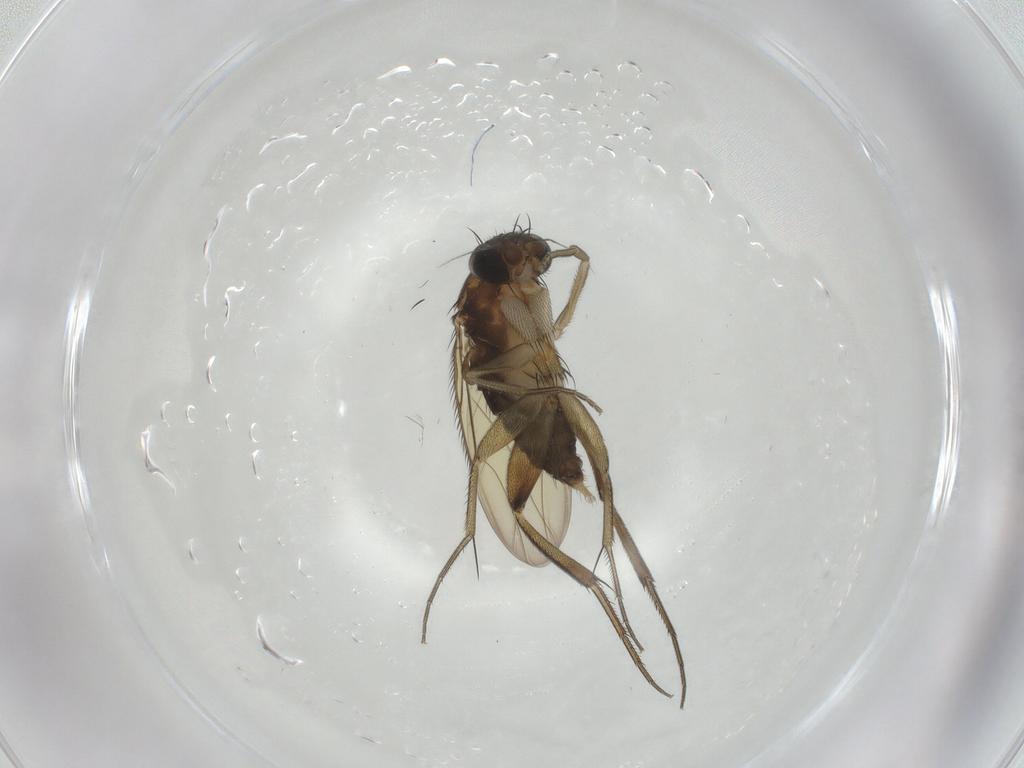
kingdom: Animalia
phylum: Arthropoda
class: Insecta
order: Diptera
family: Phoridae
